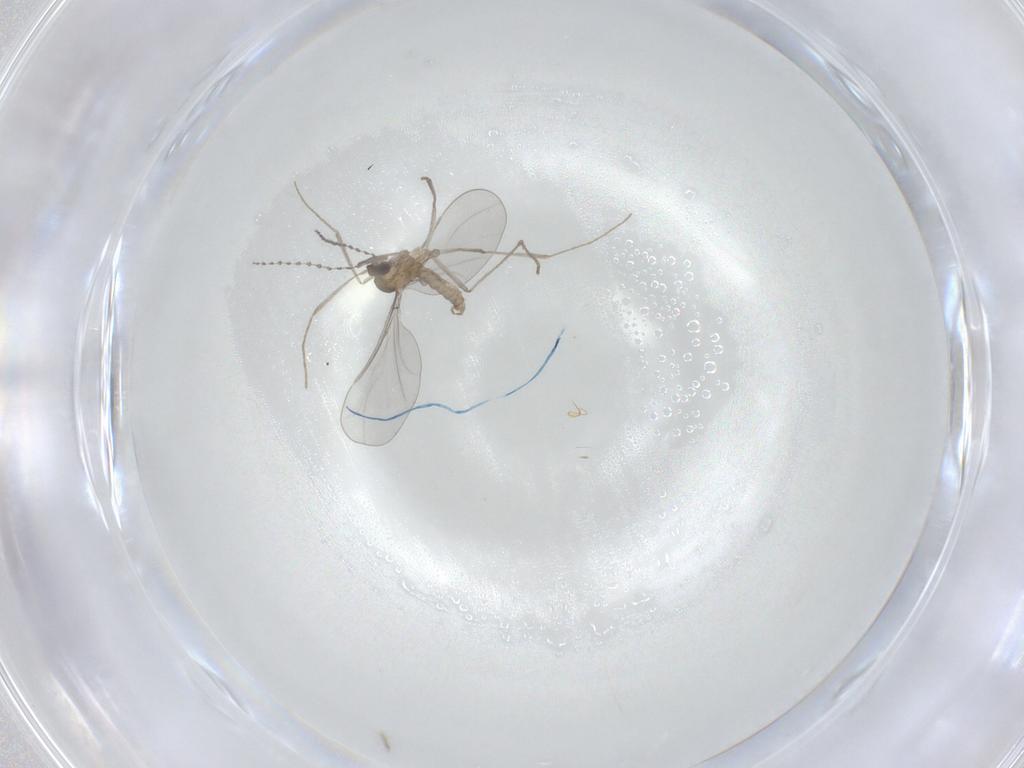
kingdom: Animalia
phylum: Arthropoda
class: Insecta
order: Diptera
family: Cecidomyiidae
